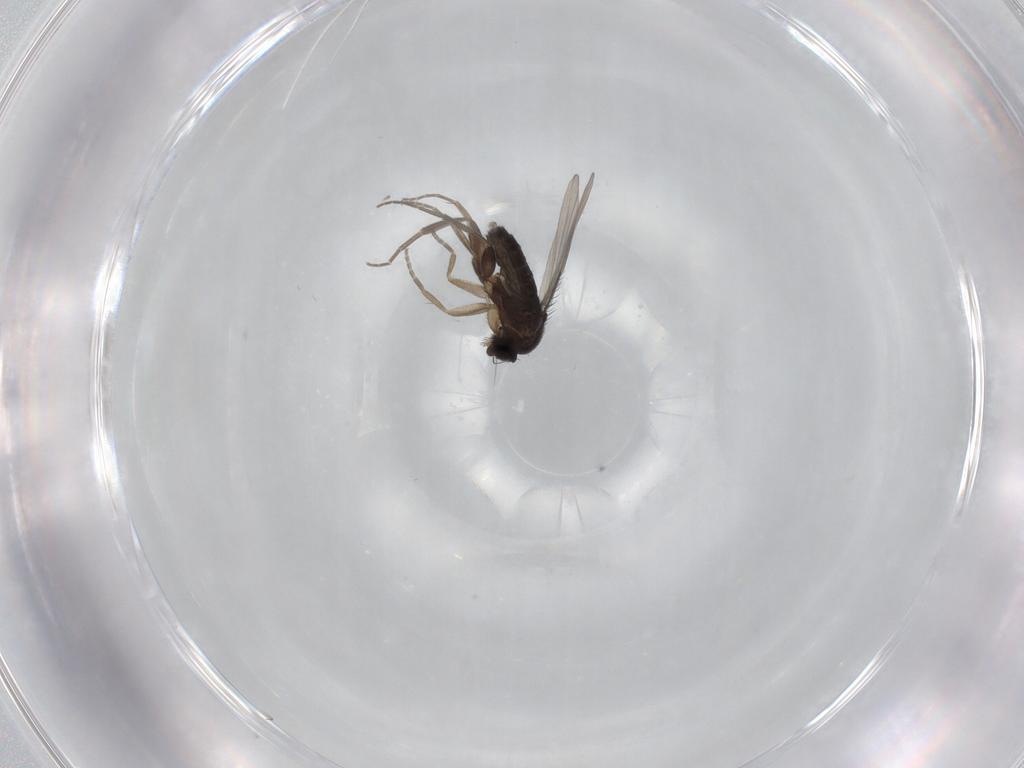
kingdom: Animalia
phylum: Arthropoda
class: Insecta
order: Diptera
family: Phoridae
